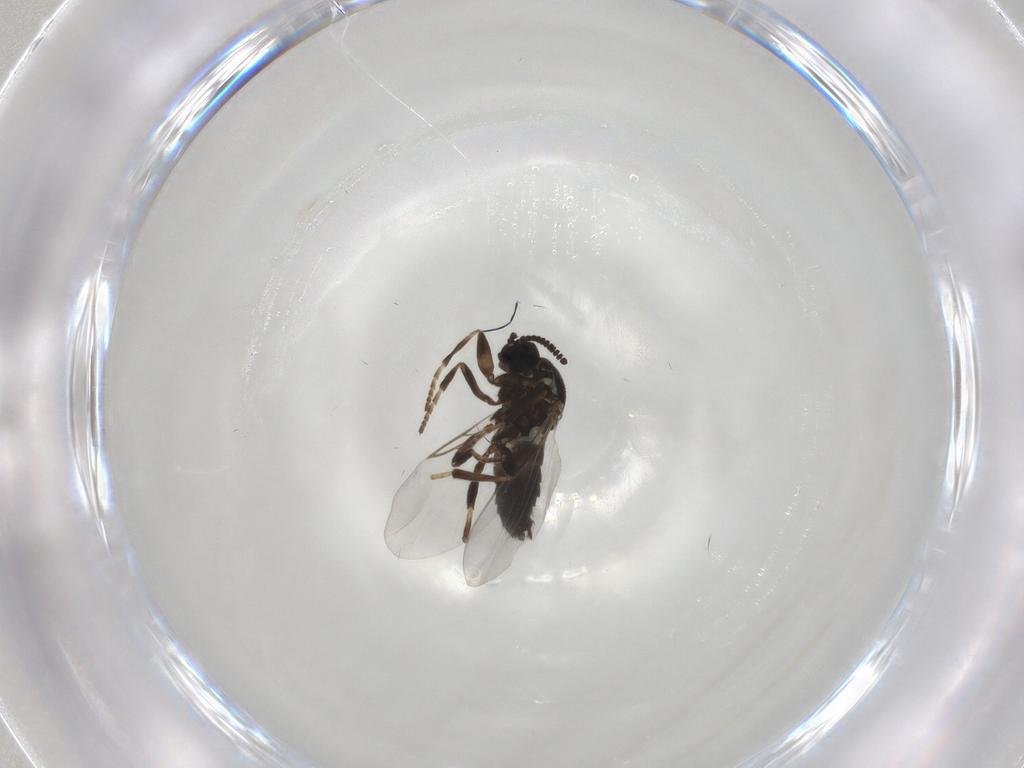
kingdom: Animalia
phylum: Arthropoda
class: Insecta
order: Diptera
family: Scatopsidae
